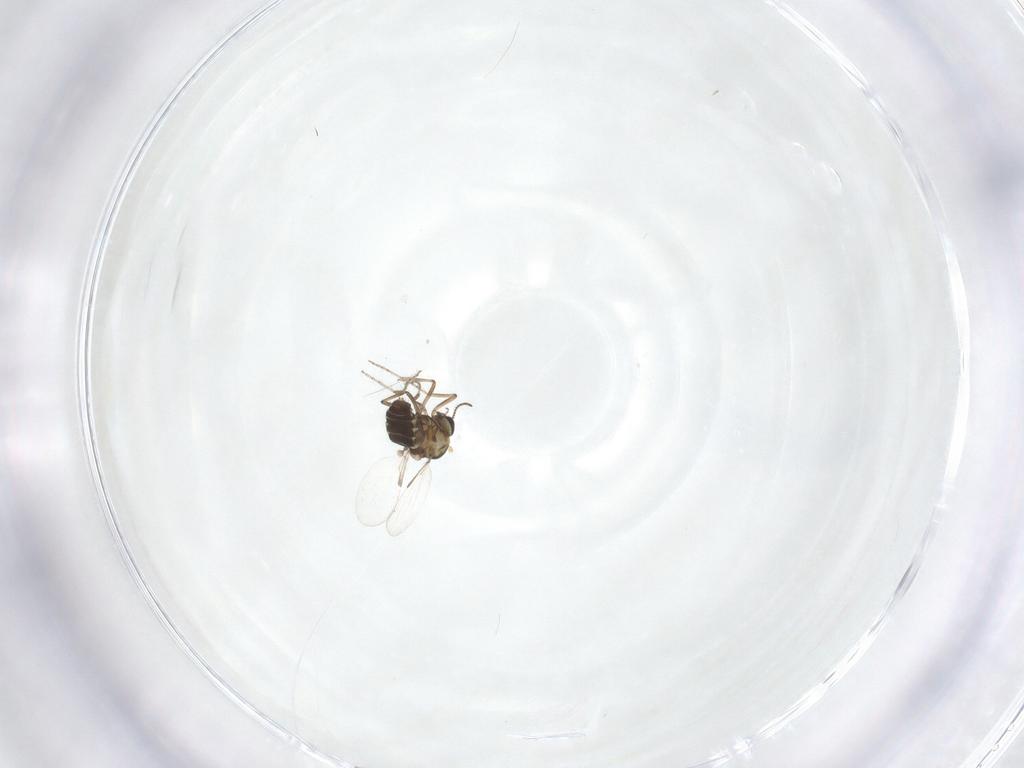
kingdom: Animalia
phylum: Arthropoda
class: Insecta
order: Diptera
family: Ceratopogonidae
